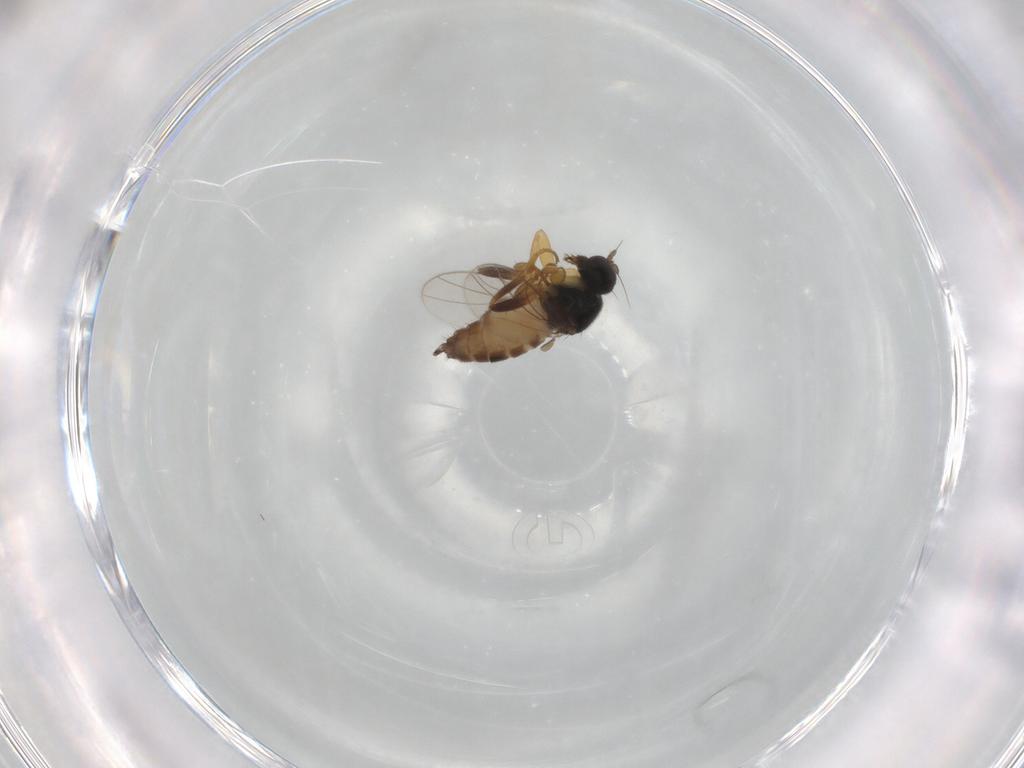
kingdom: Animalia
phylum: Arthropoda
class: Insecta
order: Diptera
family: Hybotidae
